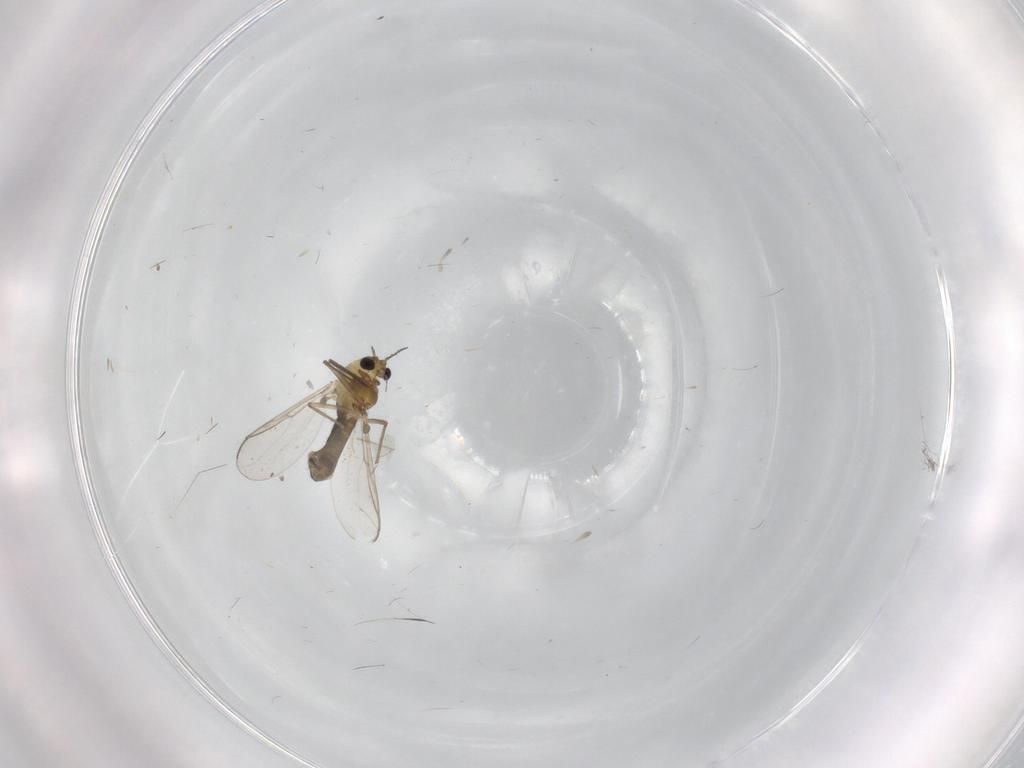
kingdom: Animalia
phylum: Arthropoda
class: Insecta
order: Diptera
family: Chironomidae
